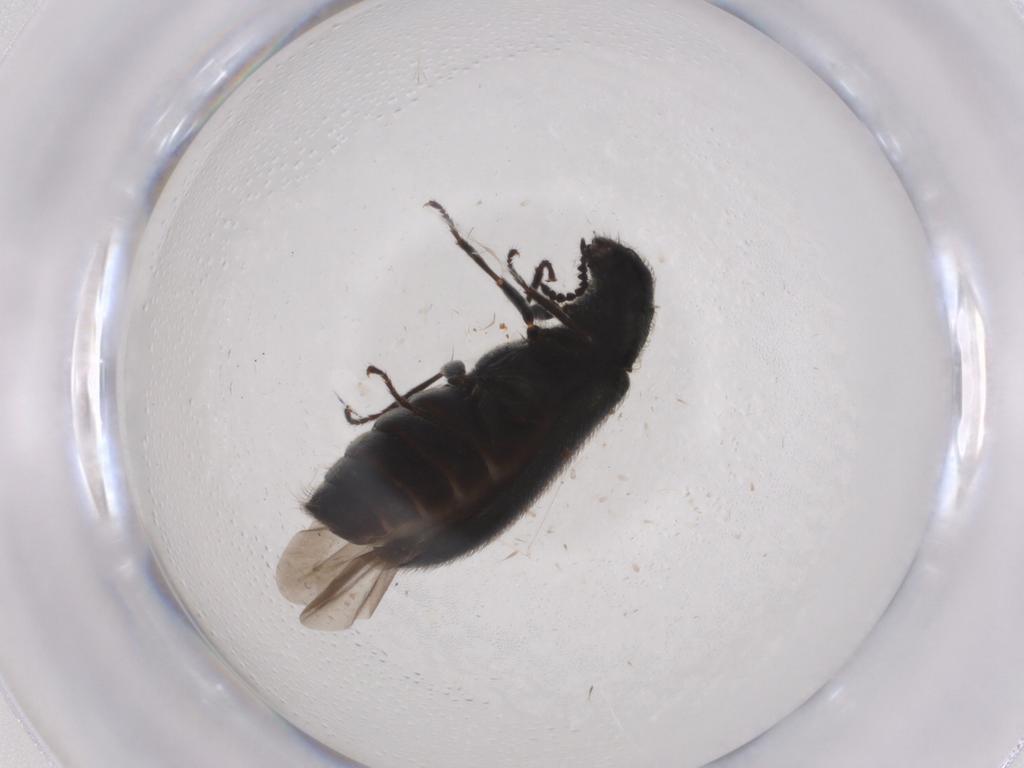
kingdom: Animalia
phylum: Arthropoda
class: Insecta
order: Coleoptera
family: Melyridae
